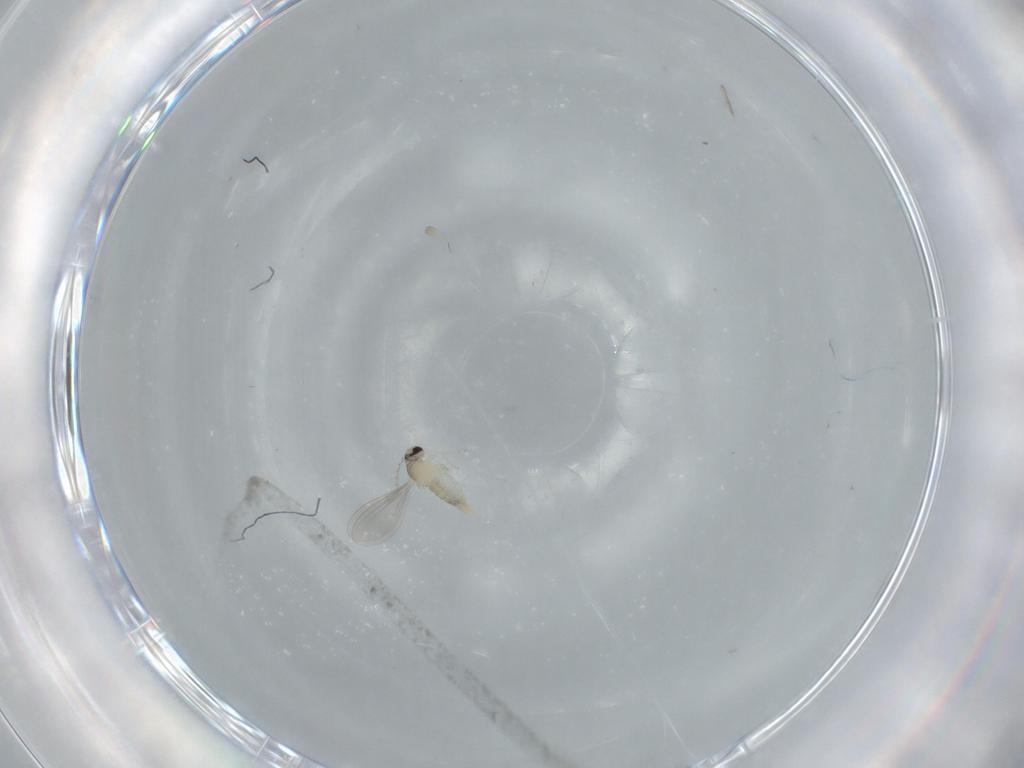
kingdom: Animalia
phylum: Arthropoda
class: Insecta
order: Diptera
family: Cecidomyiidae
